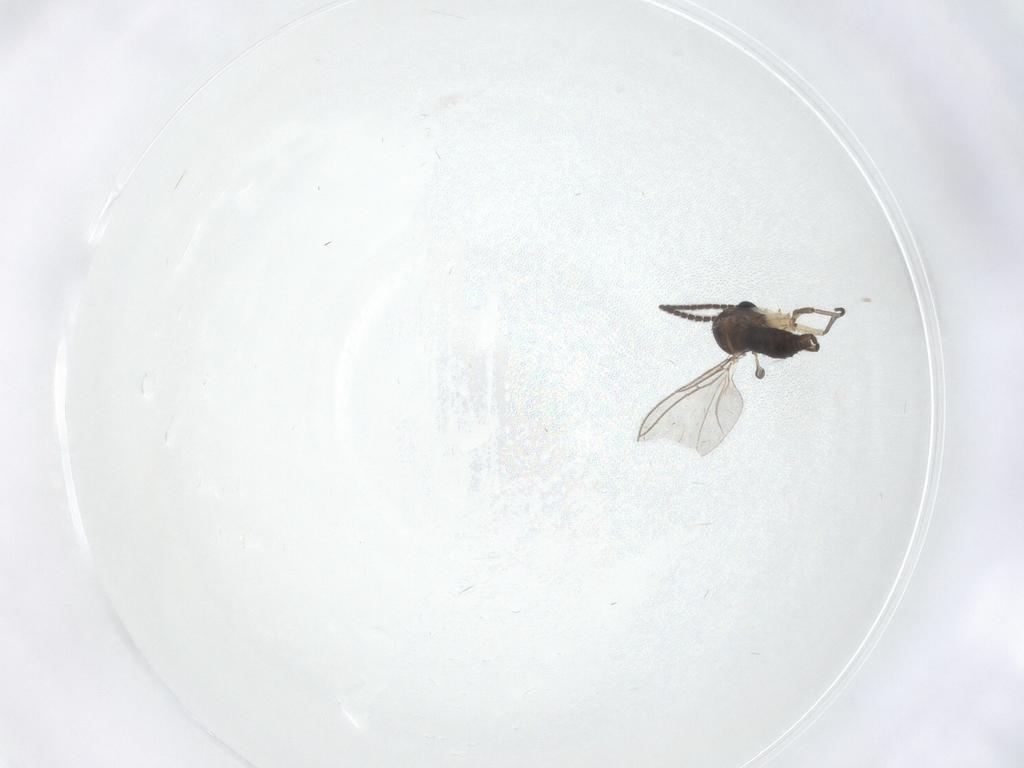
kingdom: Animalia
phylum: Arthropoda
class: Insecta
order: Diptera
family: Sciaridae
